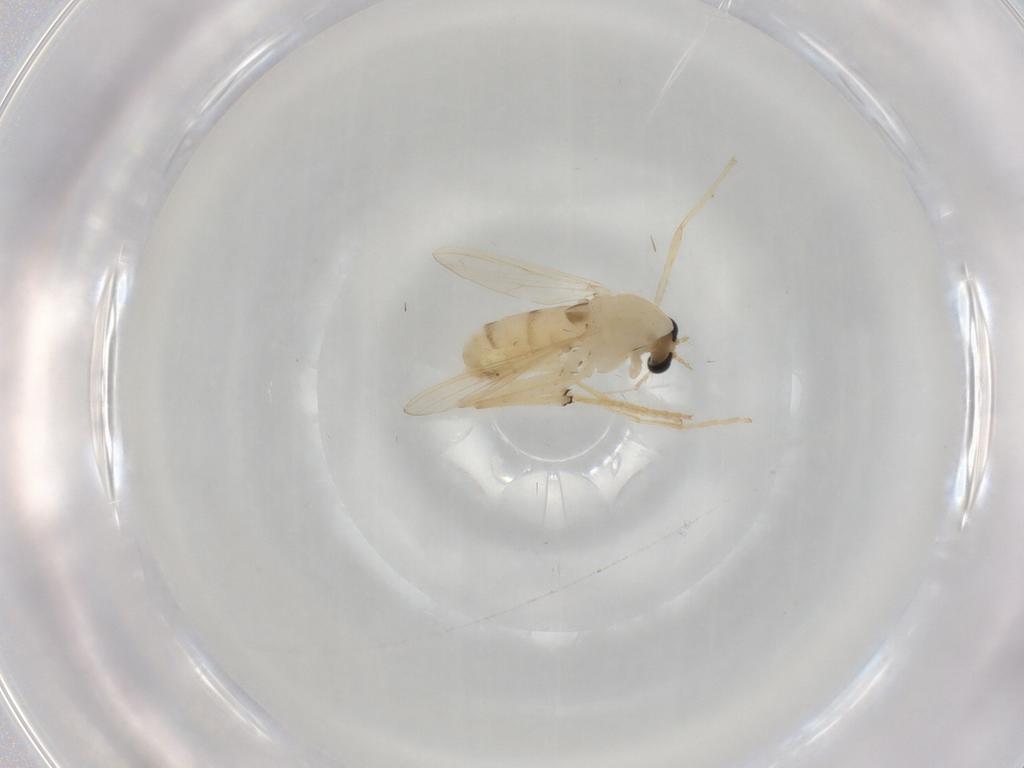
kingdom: Animalia
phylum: Arthropoda
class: Insecta
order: Diptera
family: Chironomidae
